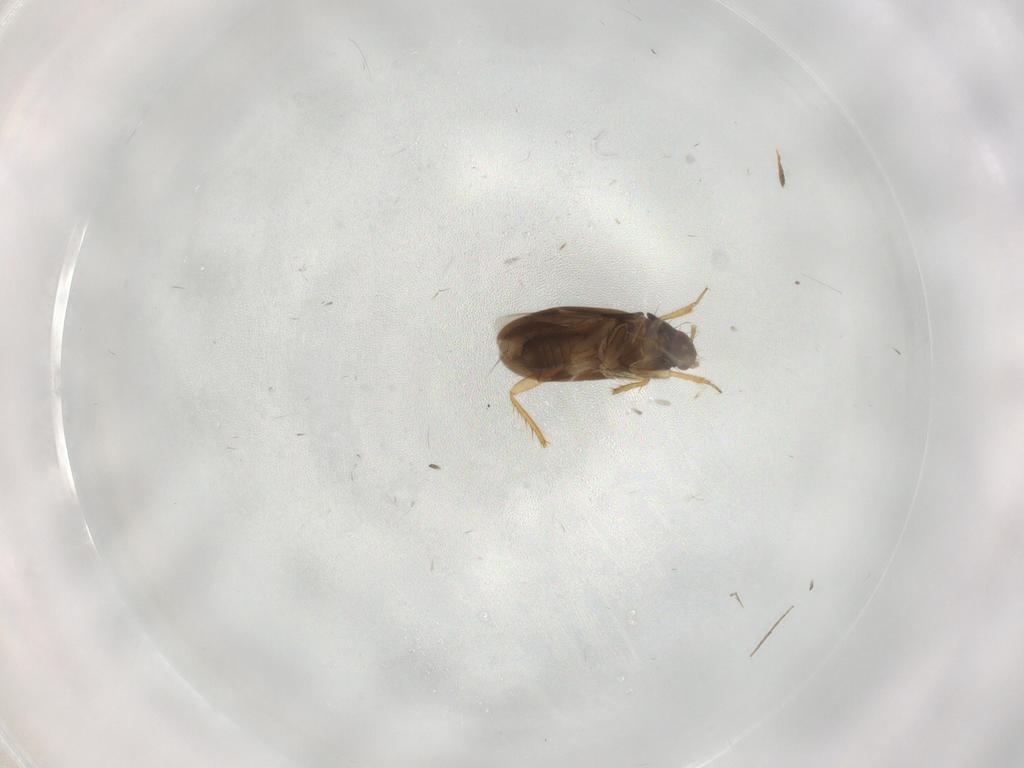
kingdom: Animalia
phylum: Arthropoda
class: Insecta
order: Hemiptera
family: Ceratocombidae
